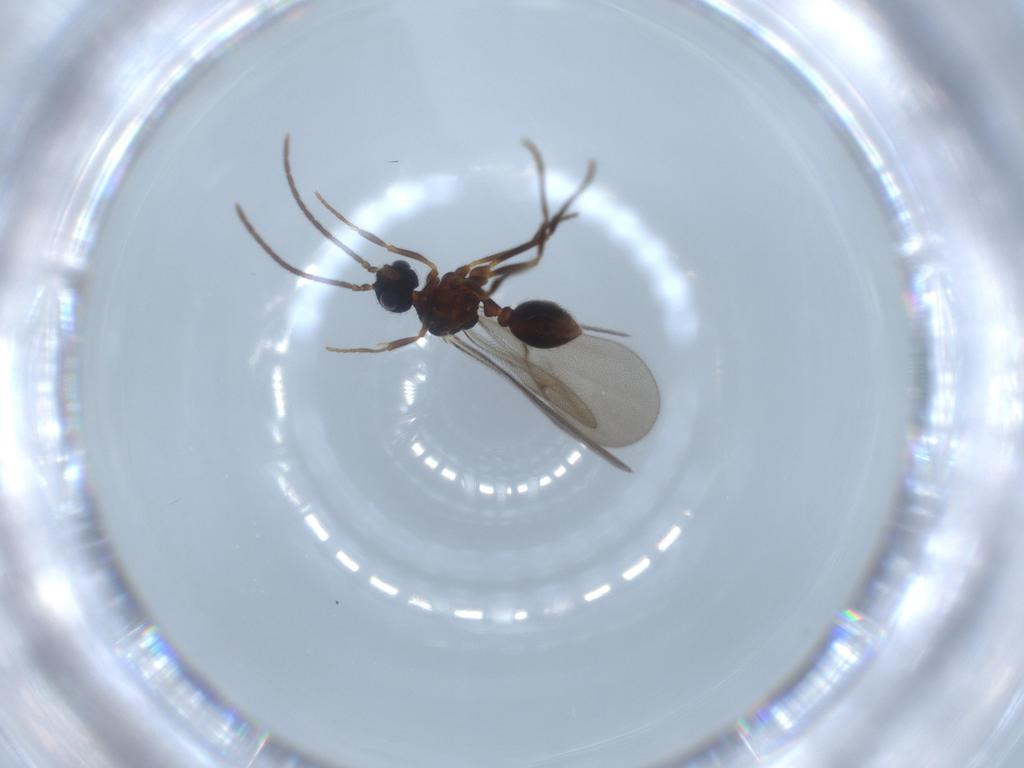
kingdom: Animalia
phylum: Arthropoda
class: Insecta
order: Hymenoptera
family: Formicidae
